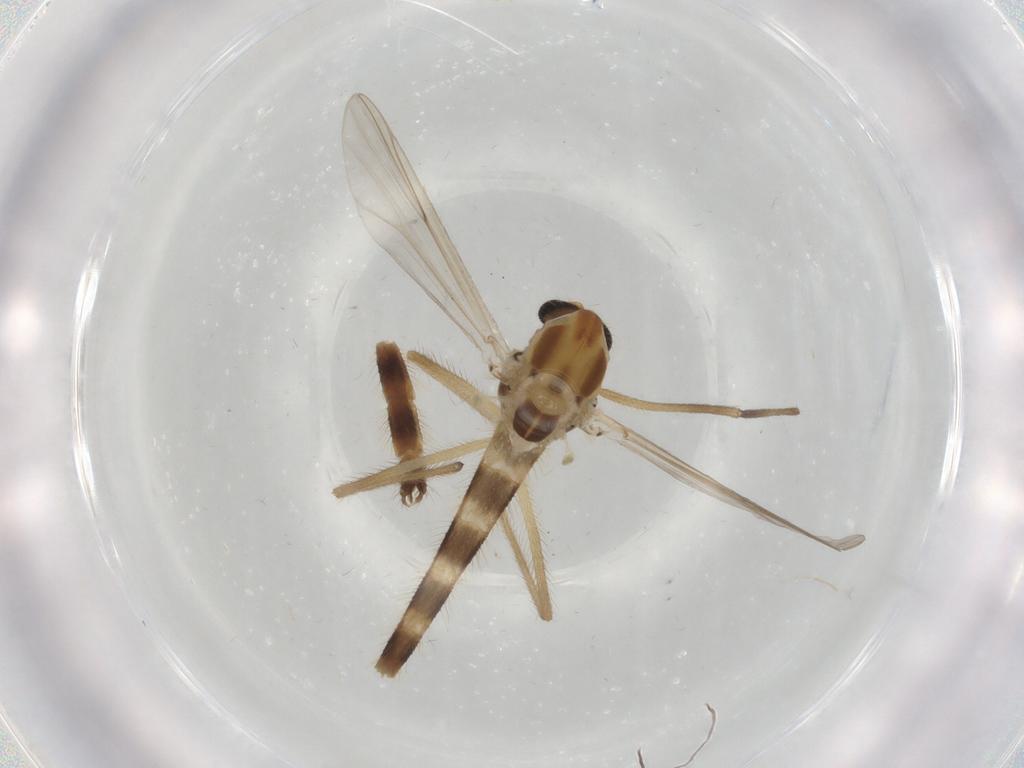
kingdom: Animalia
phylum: Arthropoda
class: Insecta
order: Diptera
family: Chironomidae
